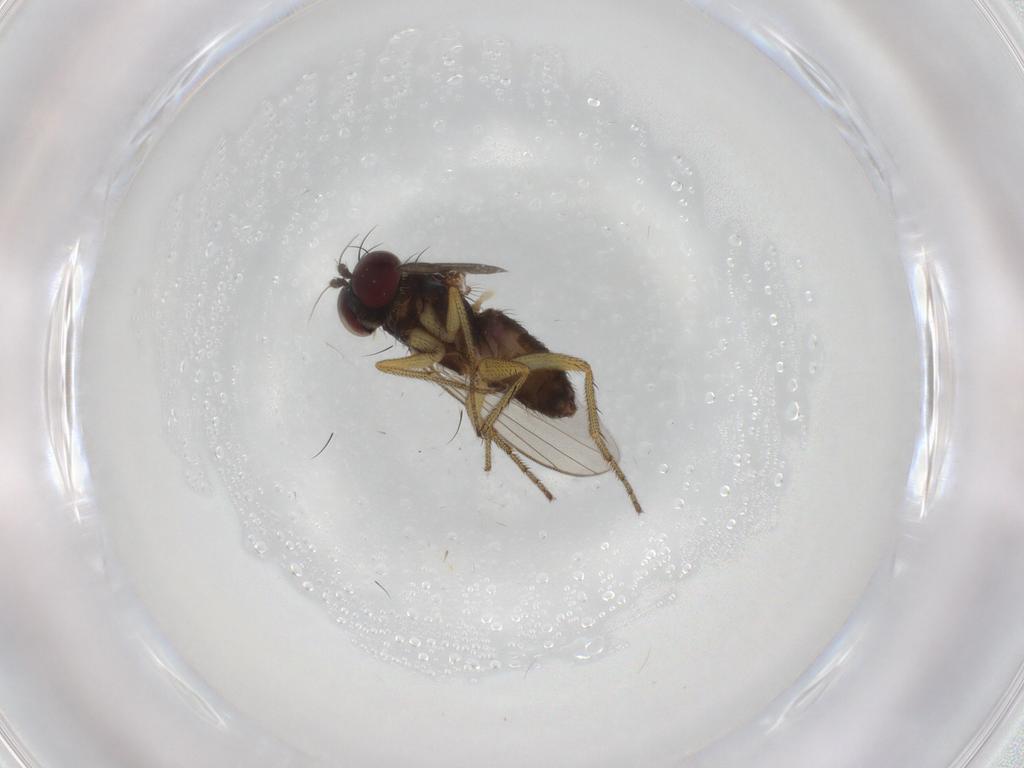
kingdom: Animalia
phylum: Arthropoda
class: Insecta
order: Diptera
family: Dolichopodidae
